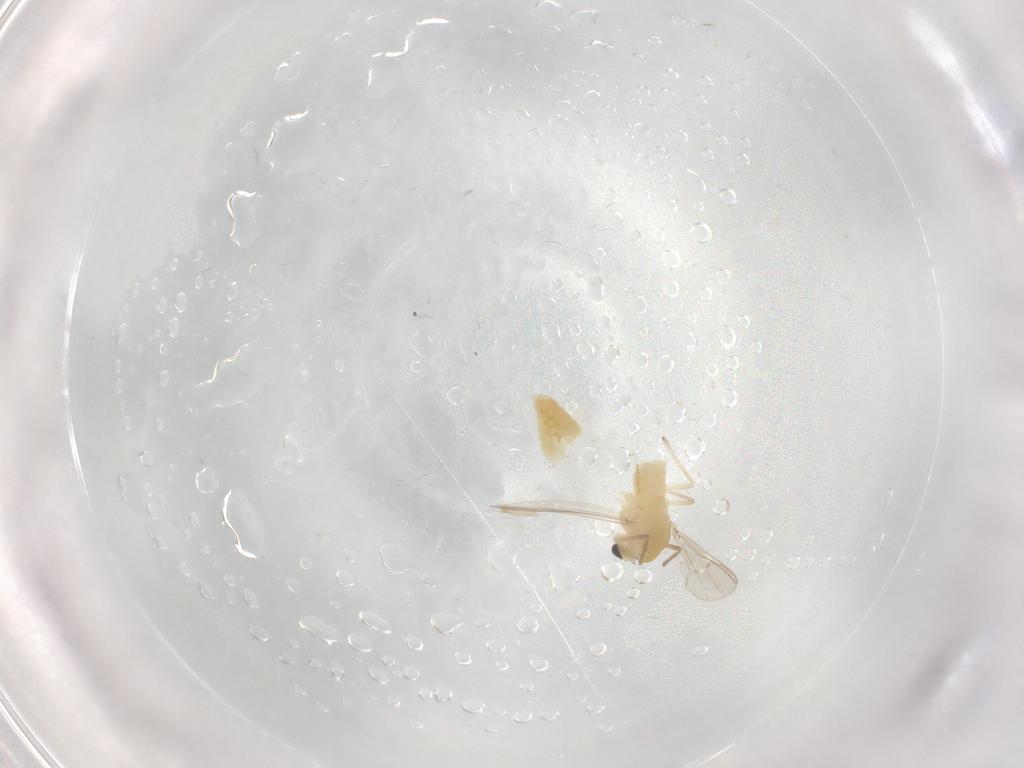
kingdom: Animalia
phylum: Arthropoda
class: Insecta
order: Diptera
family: Chironomidae
